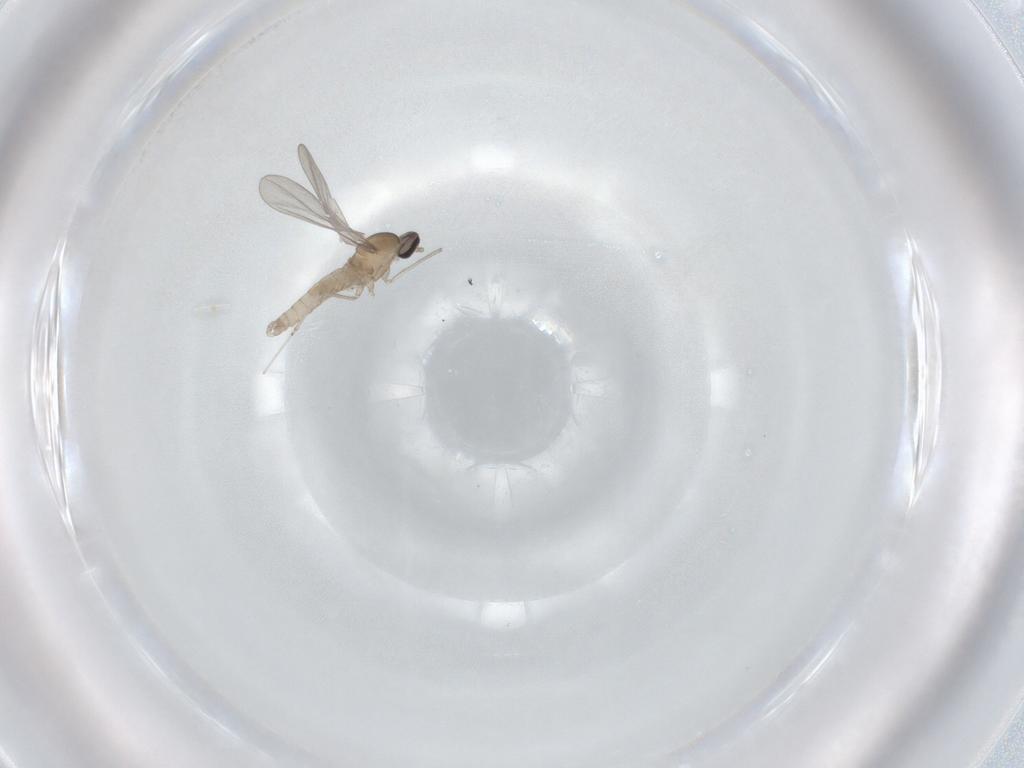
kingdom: Animalia
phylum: Arthropoda
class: Insecta
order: Diptera
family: Cecidomyiidae
